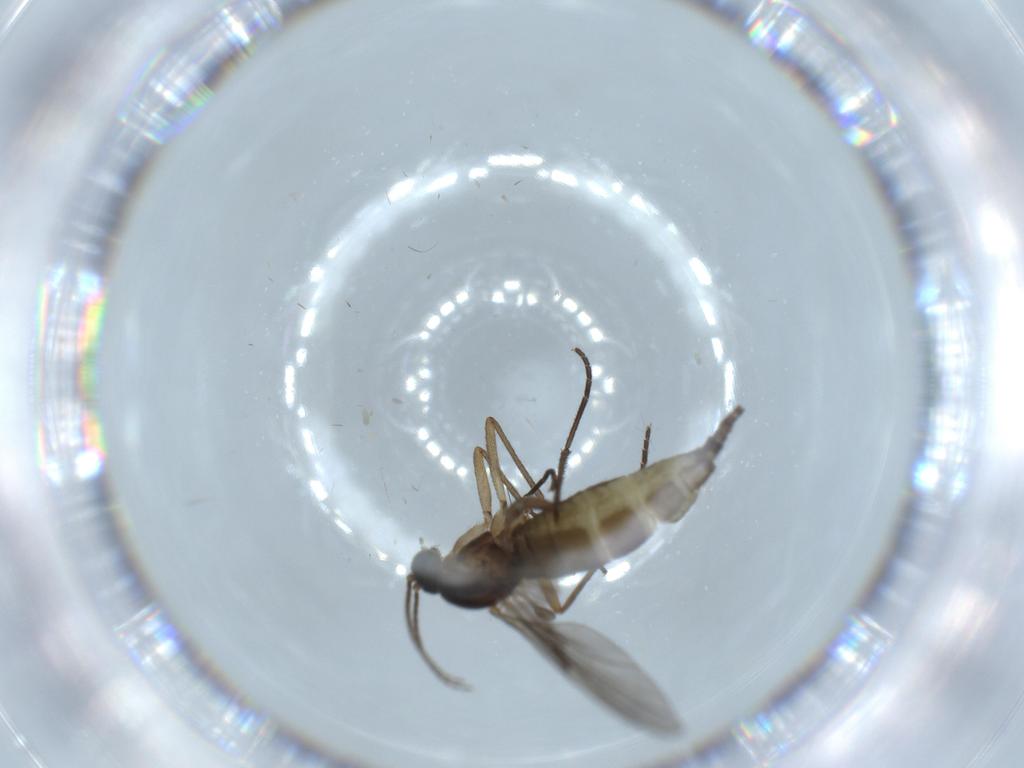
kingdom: Animalia
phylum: Arthropoda
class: Insecta
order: Diptera
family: Sciaridae
